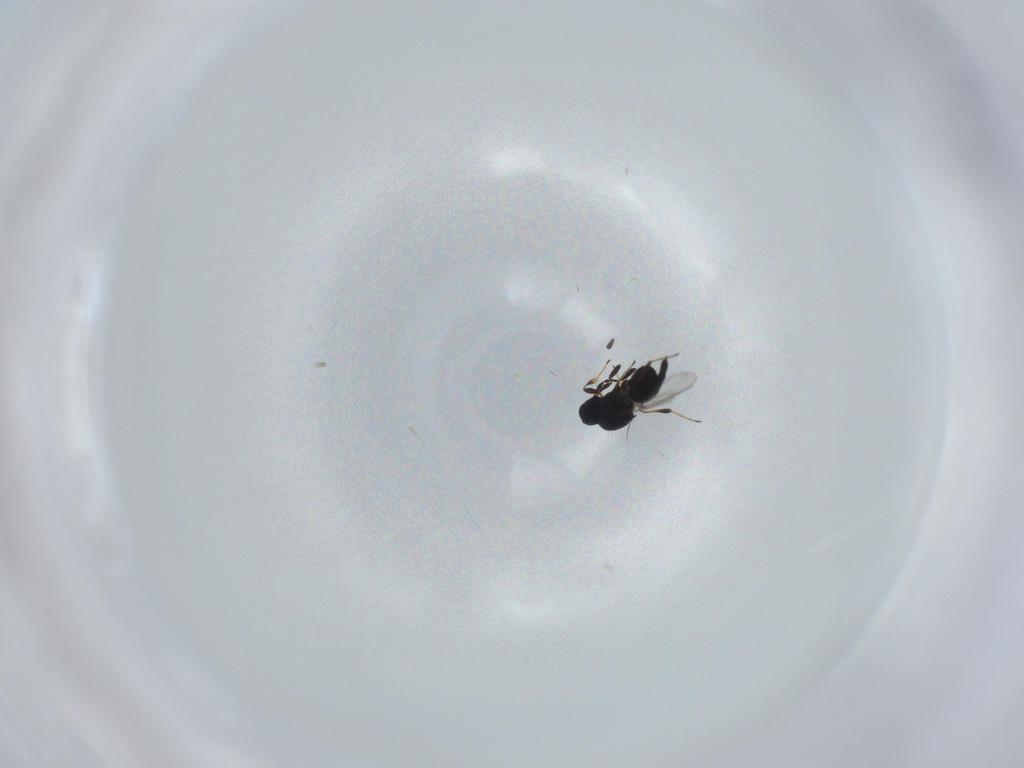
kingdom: Animalia
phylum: Arthropoda
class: Insecta
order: Hymenoptera
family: Platygastridae
